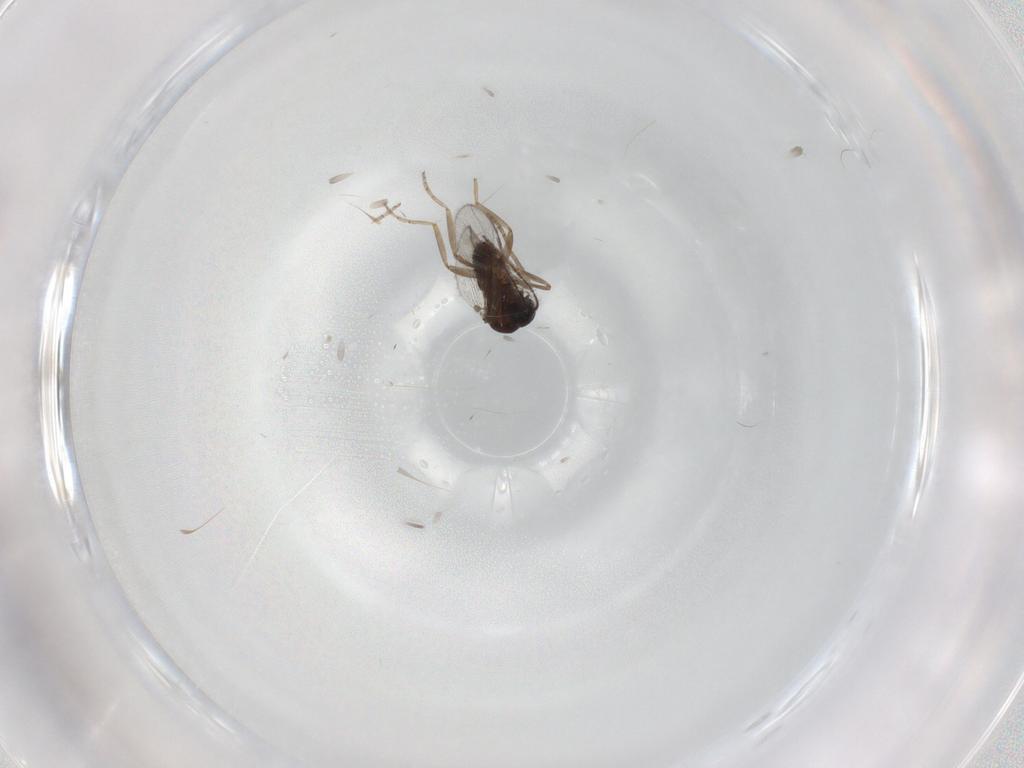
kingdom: Animalia
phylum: Arthropoda
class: Insecta
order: Diptera
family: Ceratopogonidae
